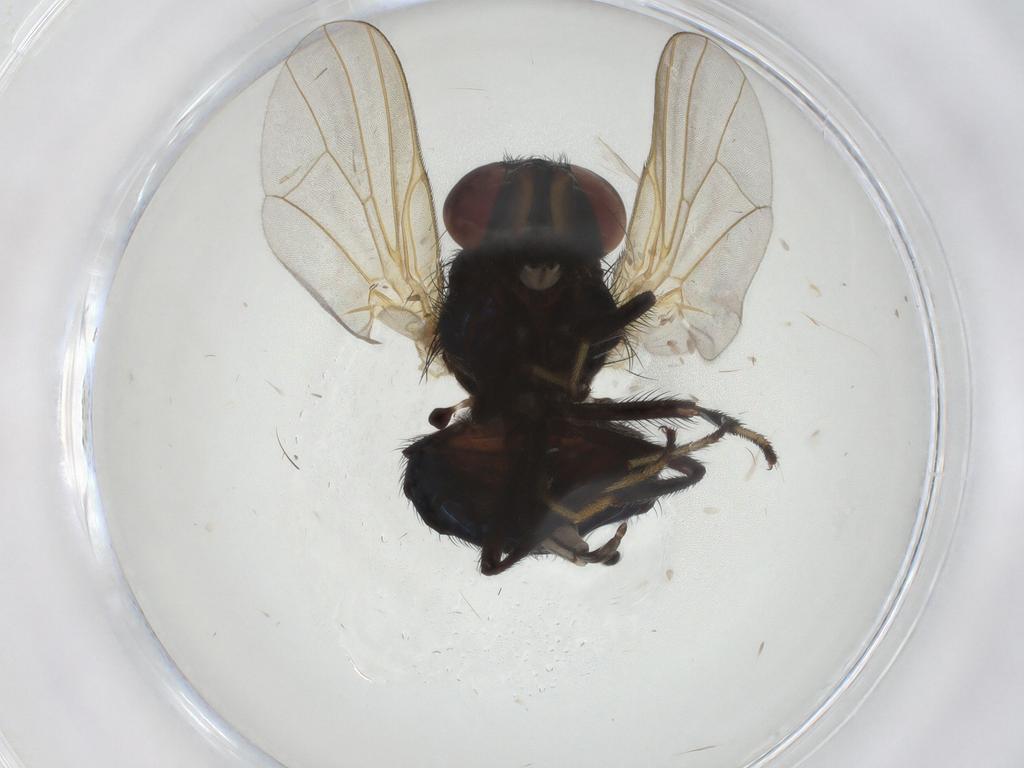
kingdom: Animalia
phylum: Arthropoda
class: Insecta
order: Diptera
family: Lonchaeidae
